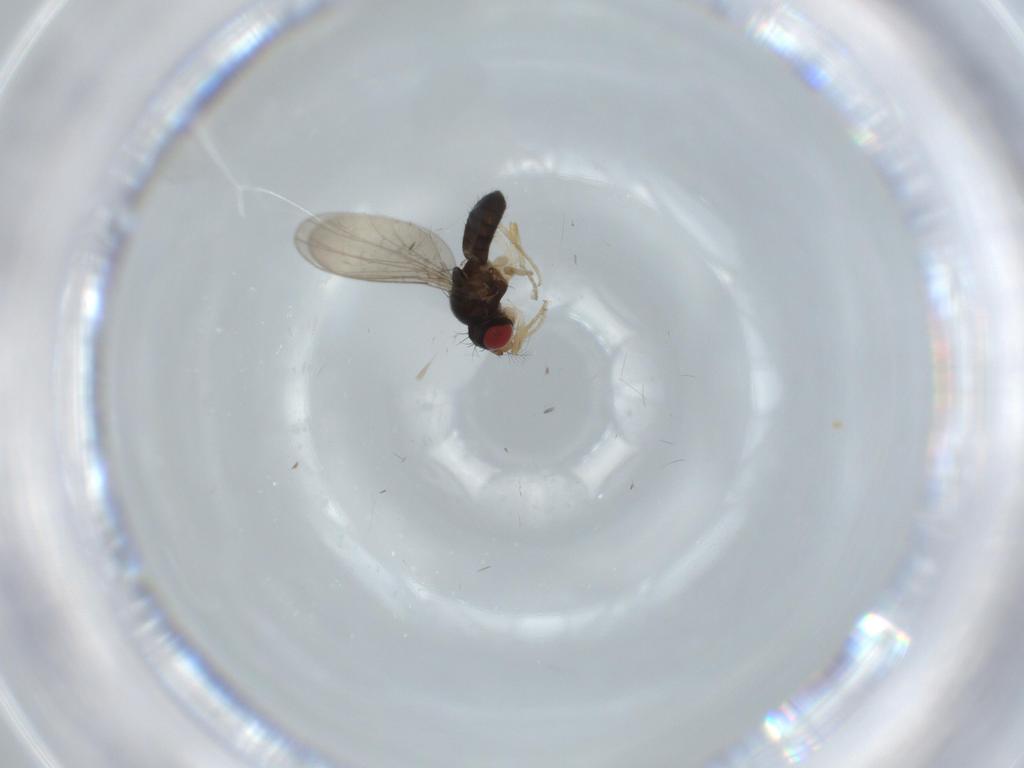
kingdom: Animalia
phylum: Arthropoda
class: Insecta
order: Diptera
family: Drosophilidae
